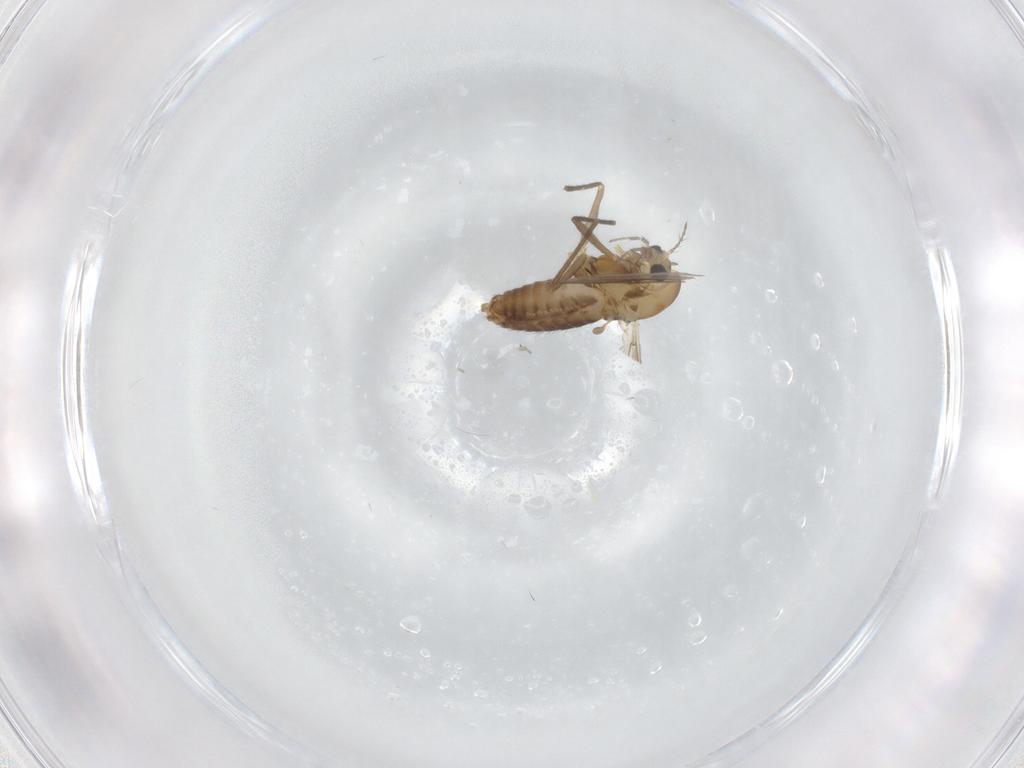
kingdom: Animalia
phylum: Arthropoda
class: Insecta
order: Diptera
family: Chironomidae
